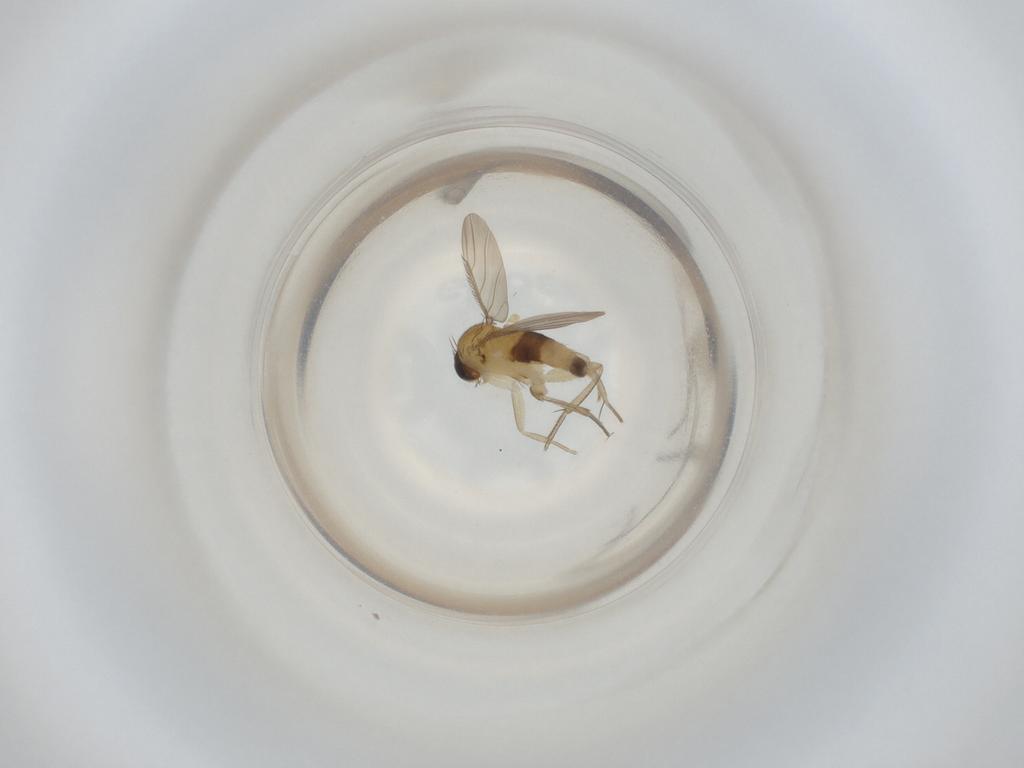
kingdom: Animalia
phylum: Arthropoda
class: Insecta
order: Diptera
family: Phoridae
